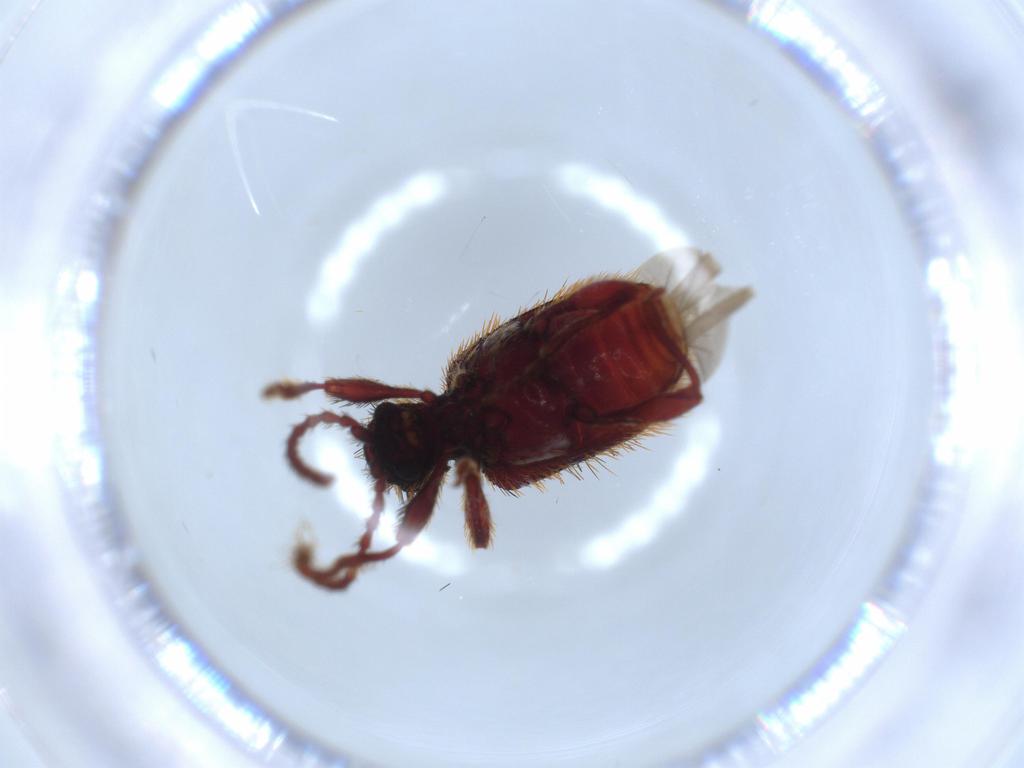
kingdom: Animalia
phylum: Arthropoda
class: Insecta
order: Coleoptera
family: Ptinidae
